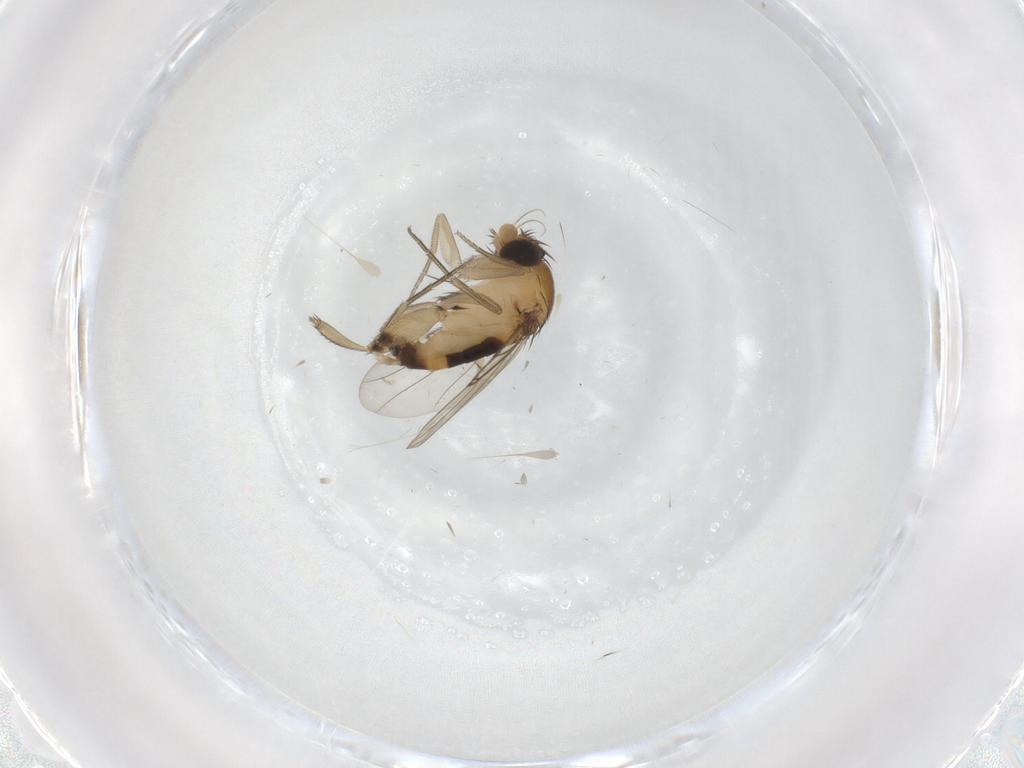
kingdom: Animalia
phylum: Arthropoda
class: Insecta
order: Diptera
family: Phoridae
